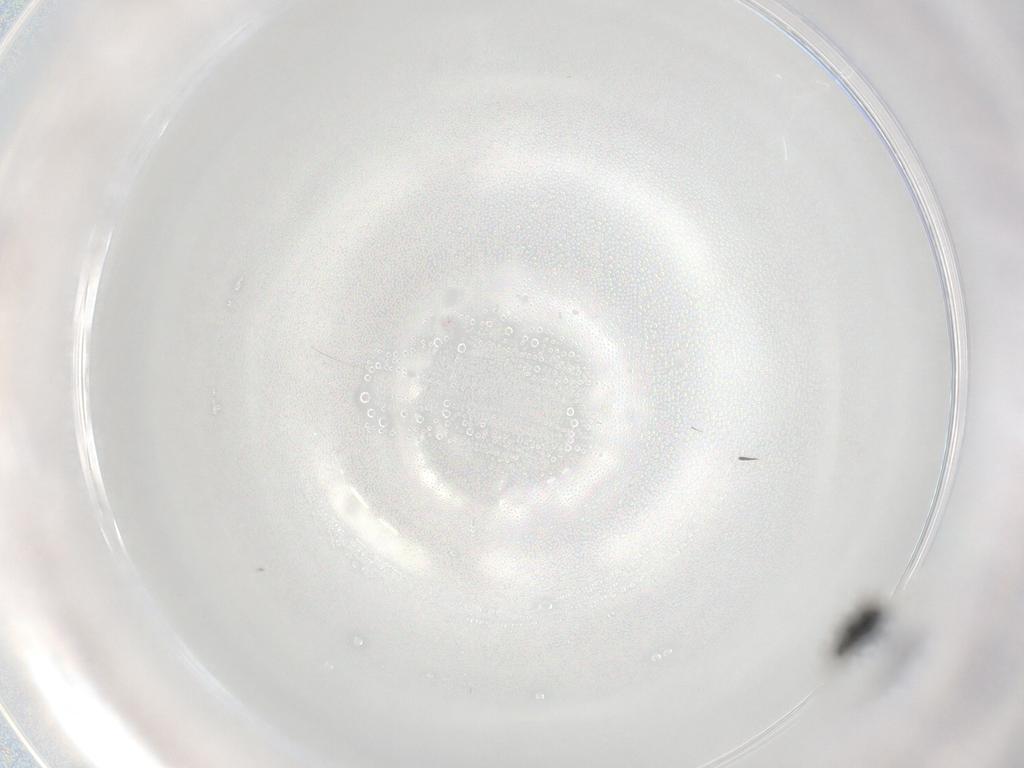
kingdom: Animalia
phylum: Arthropoda
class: Insecta
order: Hymenoptera
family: Scelionidae
